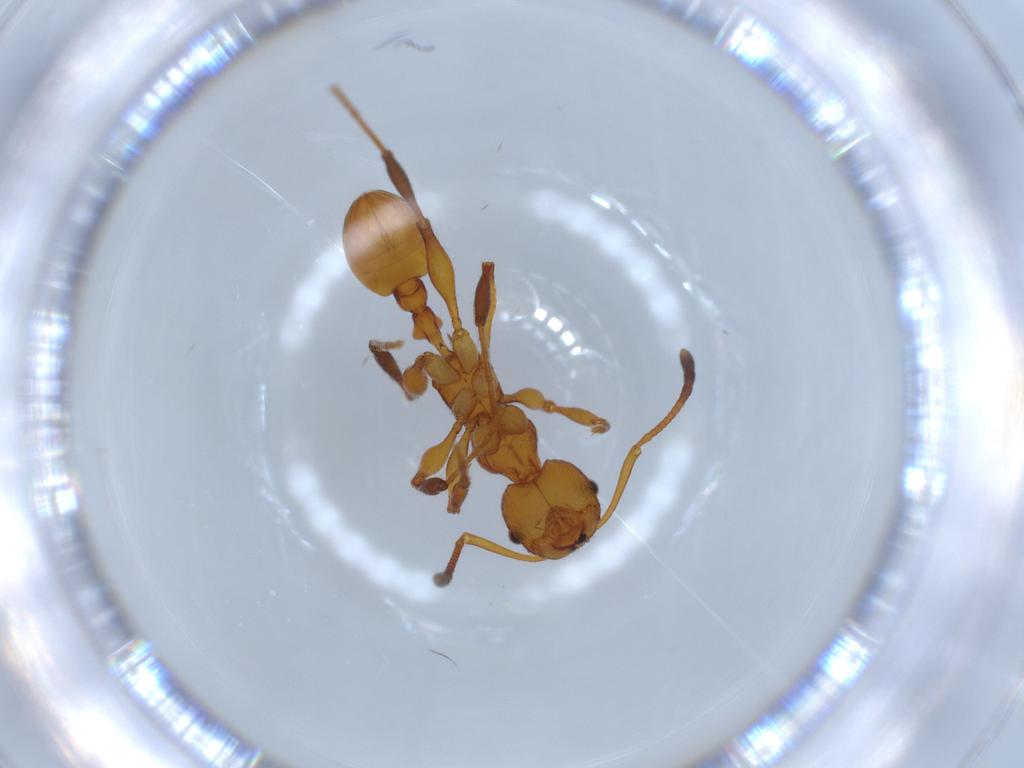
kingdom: Animalia
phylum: Arthropoda
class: Insecta
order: Hymenoptera
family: Formicidae
